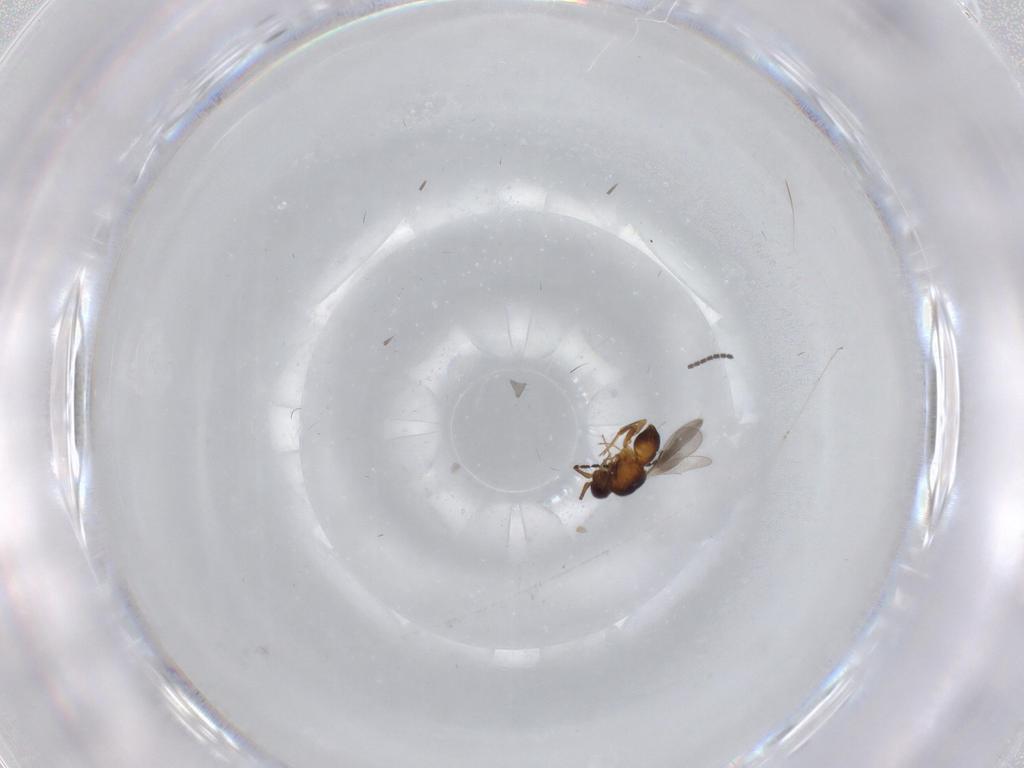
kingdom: Animalia
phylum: Arthropoda
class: Insecta
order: Hymenoptera
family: Ceraphronidae
